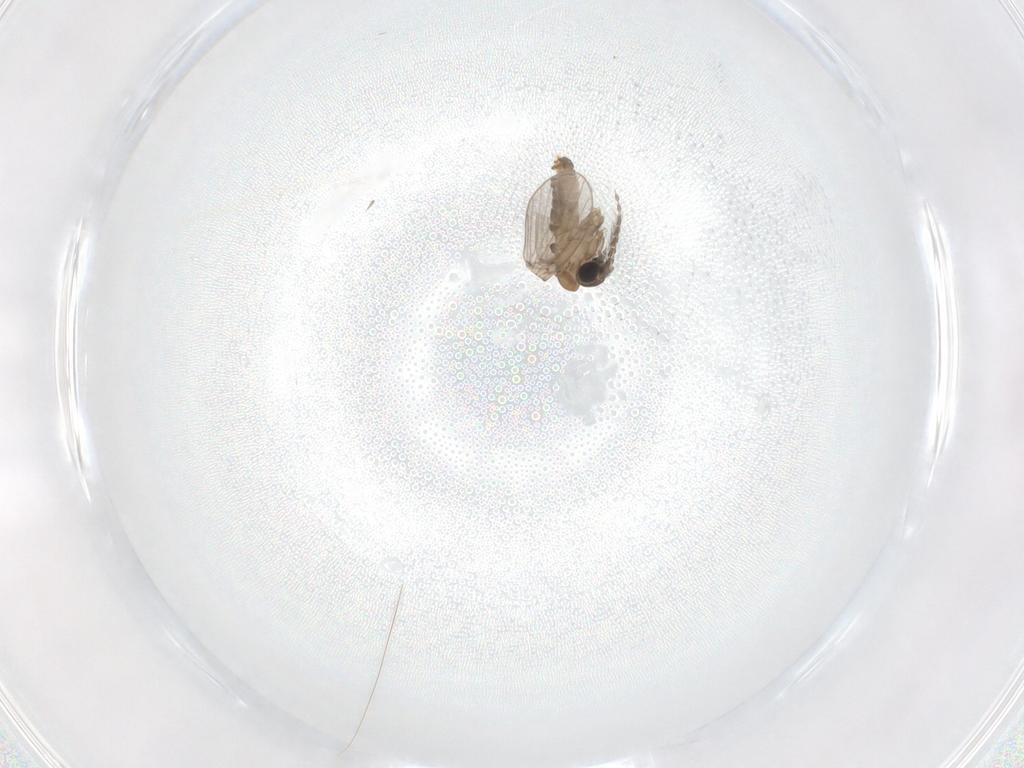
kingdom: Animalia
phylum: Arthropoda
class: Insecta
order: Diptera
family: Psychodidae
